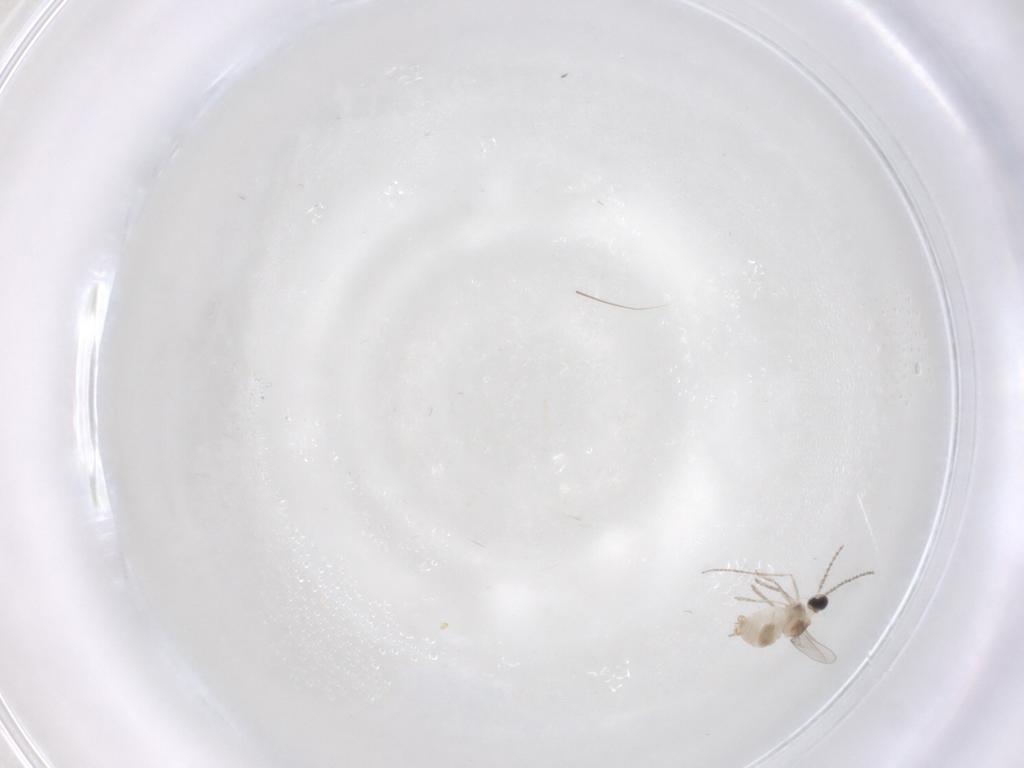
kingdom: Animalia
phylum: Arthropoda
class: Insecta
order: Diptera
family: Cecidomyiidae
